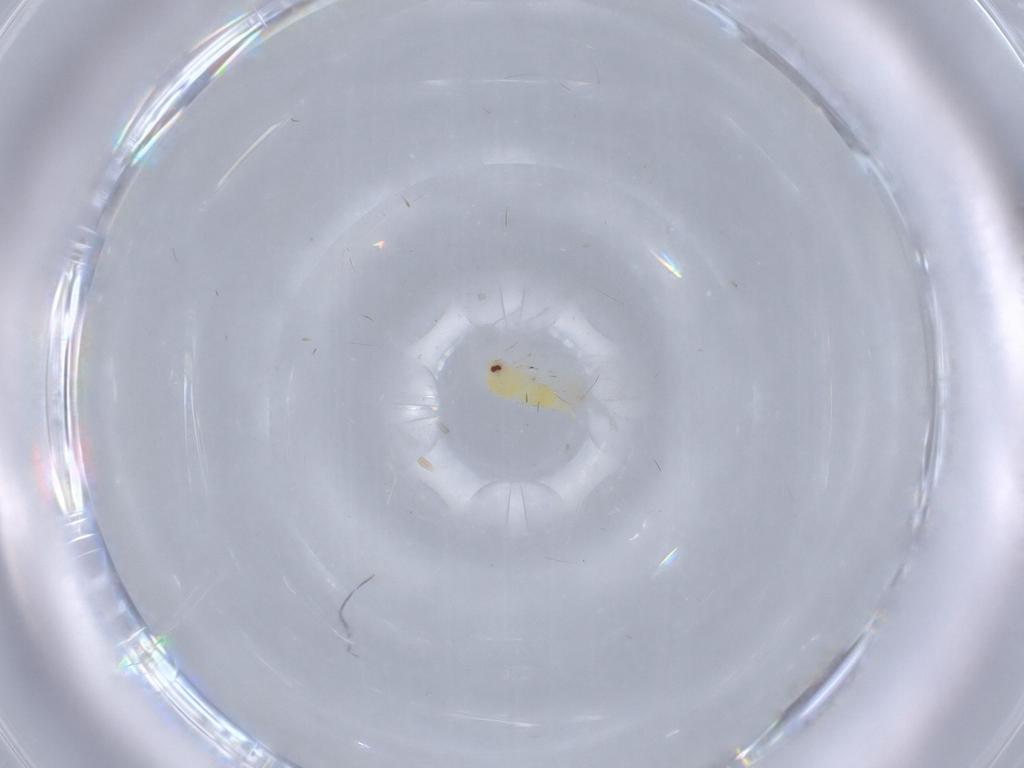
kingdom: Animalia
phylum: Arthropoda
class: Insecta
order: Hemiptera
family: Aleyrodidae
